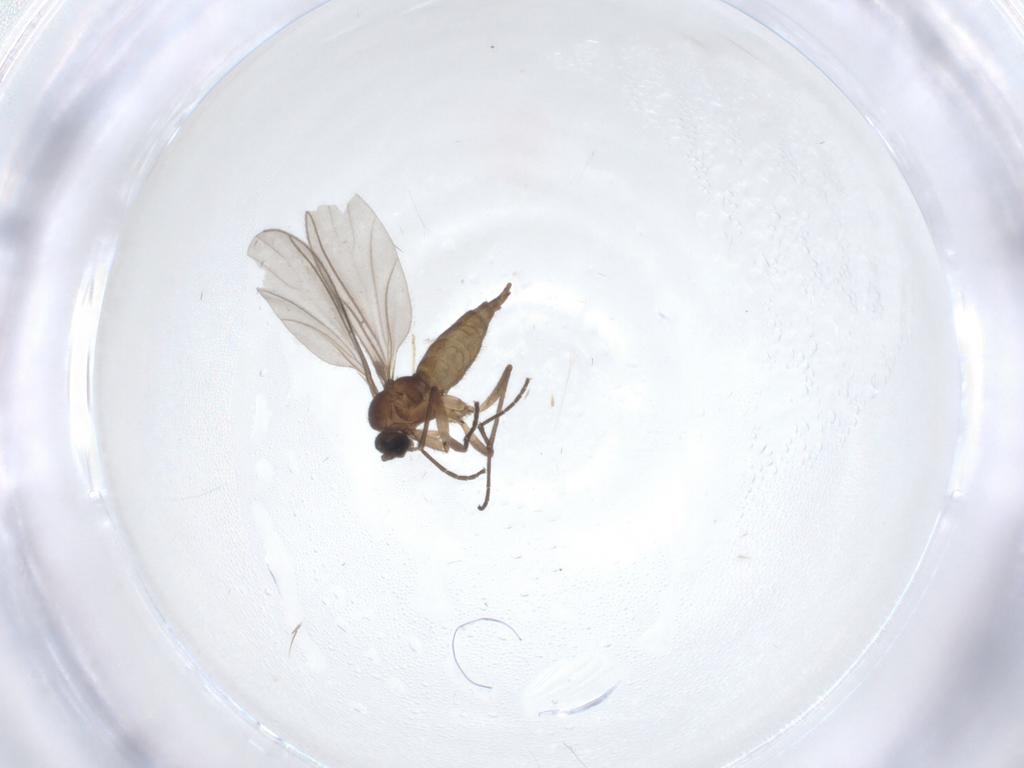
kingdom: Animalia
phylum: Arthropoda
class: Insecta
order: Diptera
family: Sciaridae
